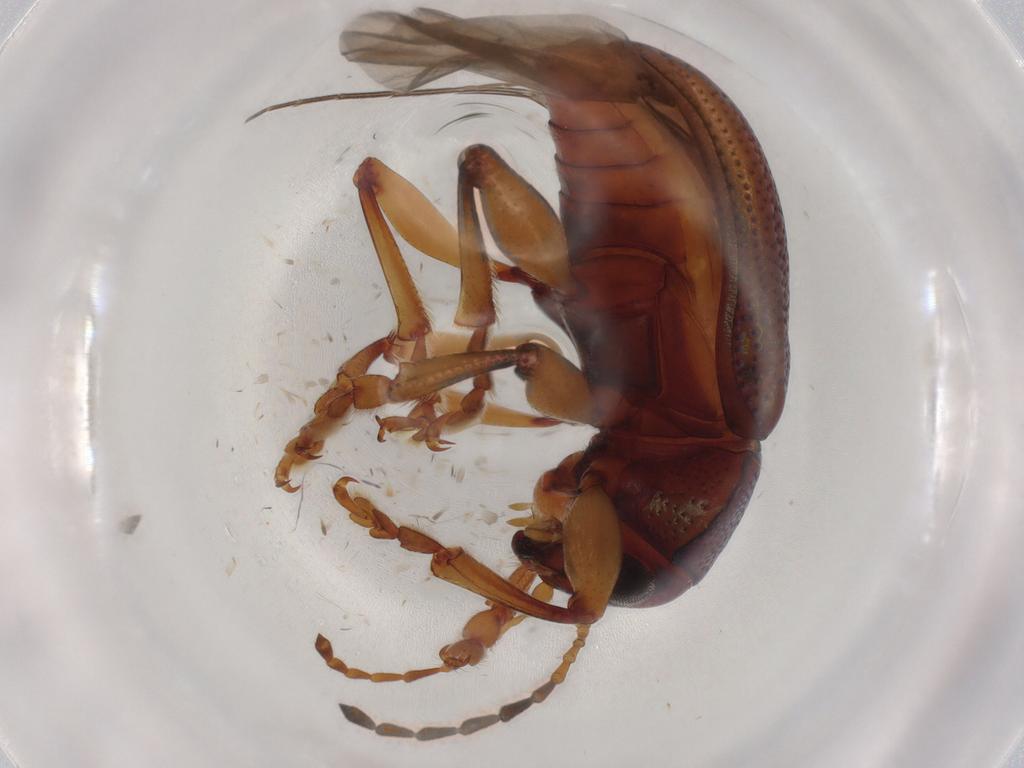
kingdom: Animalia
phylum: Arthropoda
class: Insecta
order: Coleoptera
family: Chrysomelidae
